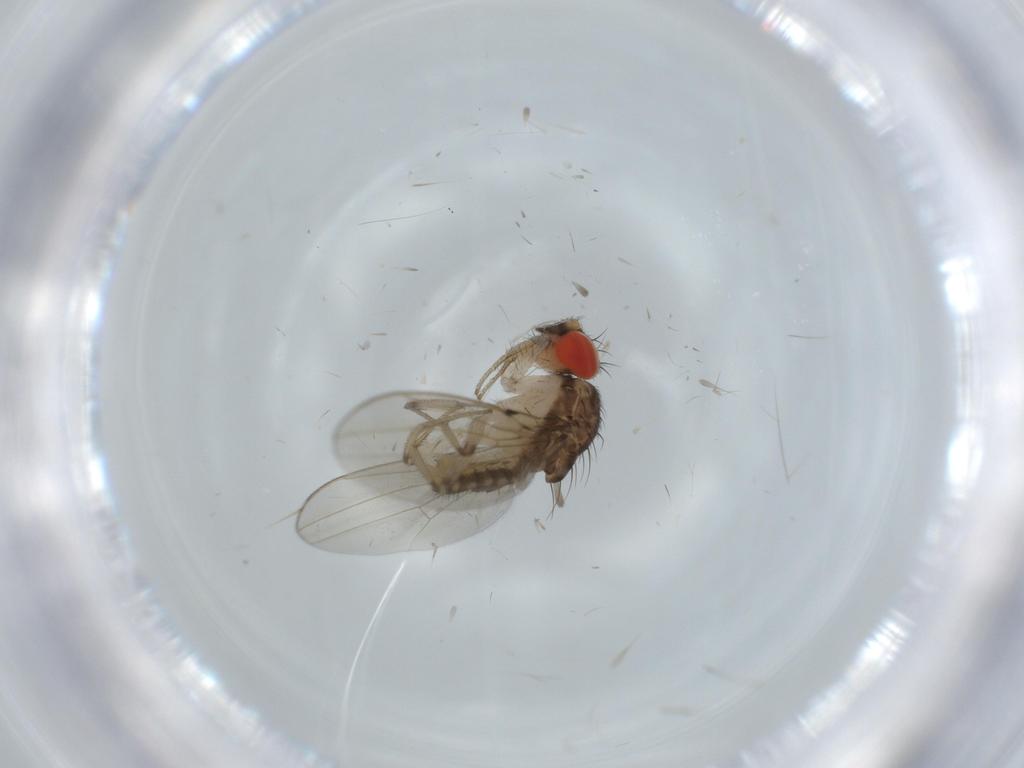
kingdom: Animalia
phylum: Arthropoda
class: Insecta
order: Diptera
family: Drosophilidae
